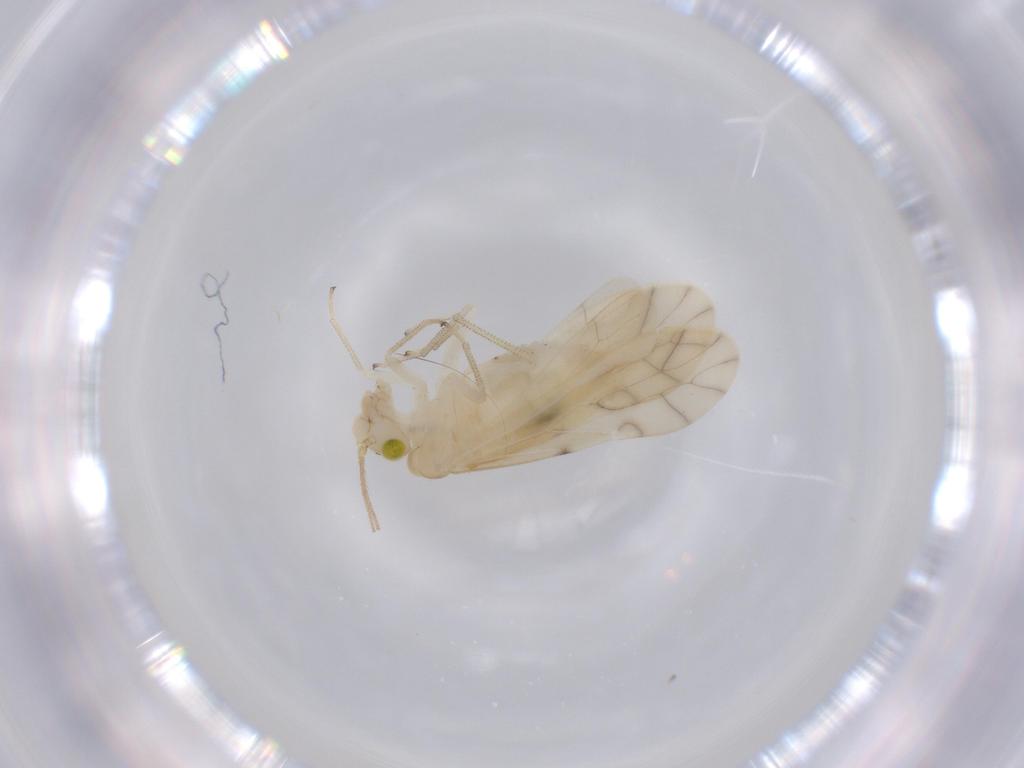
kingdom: Animalia
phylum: Arthropoda
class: Insecta
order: Psocodea
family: Caeciliusidae
